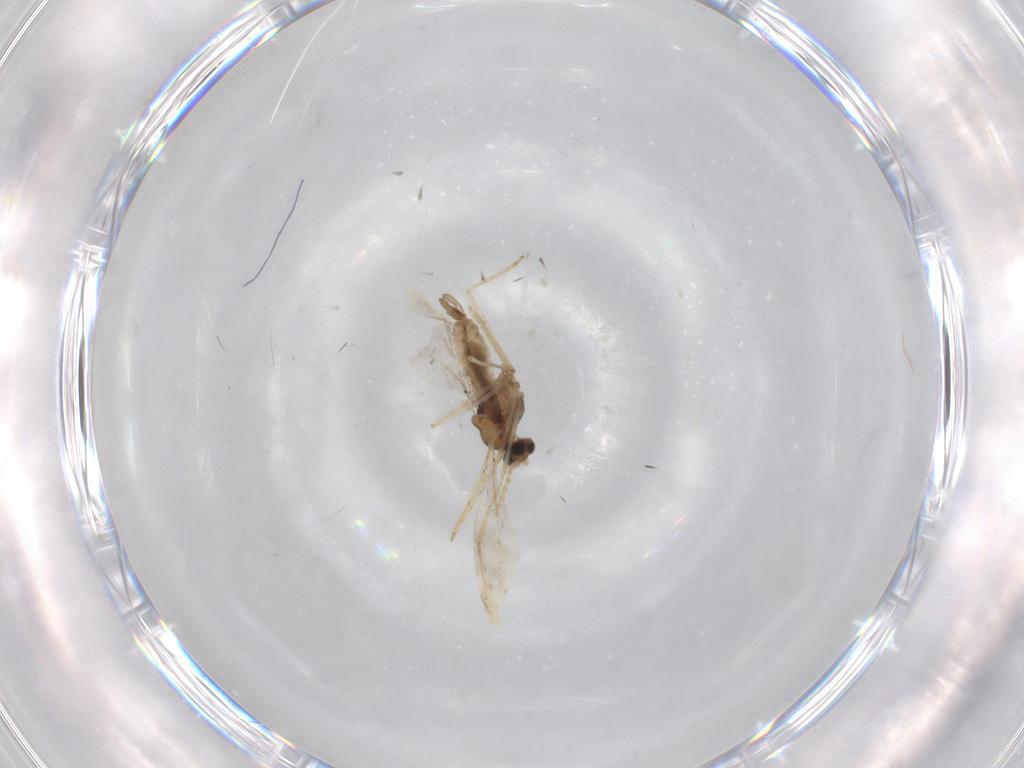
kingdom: Animalia
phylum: Arthropoda
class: Insecta
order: Diptera
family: Cecidomyiidae
